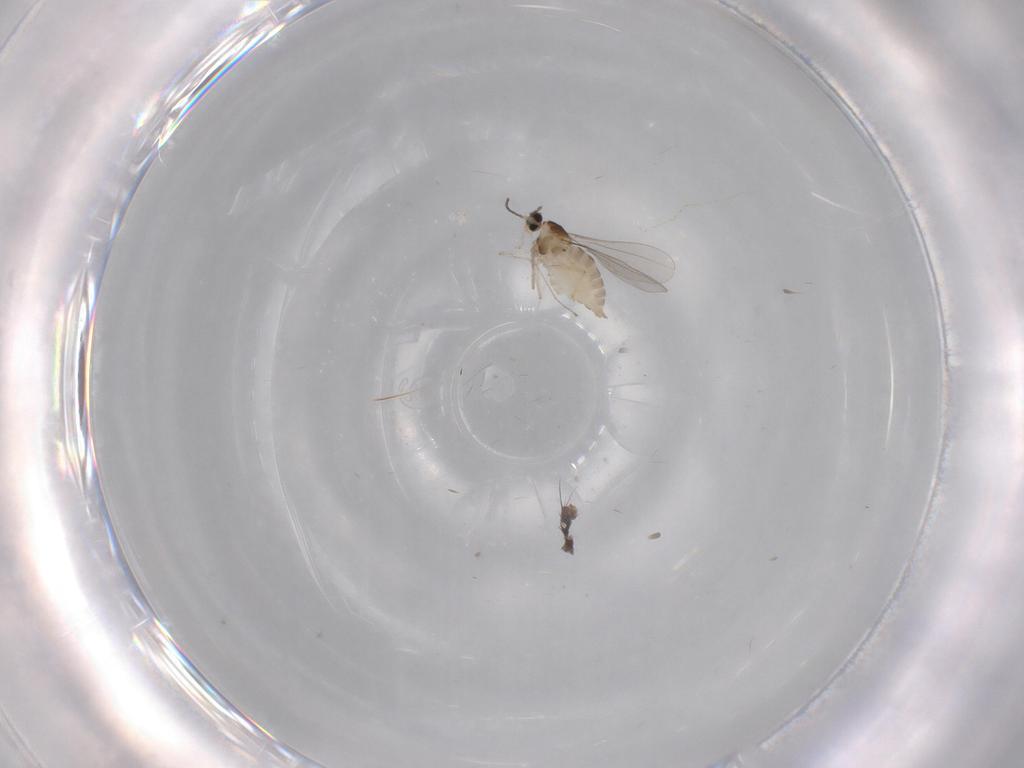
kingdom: Animalia
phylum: Arthropoda
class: Insecta
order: Diptera
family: Cecidomyiidae
